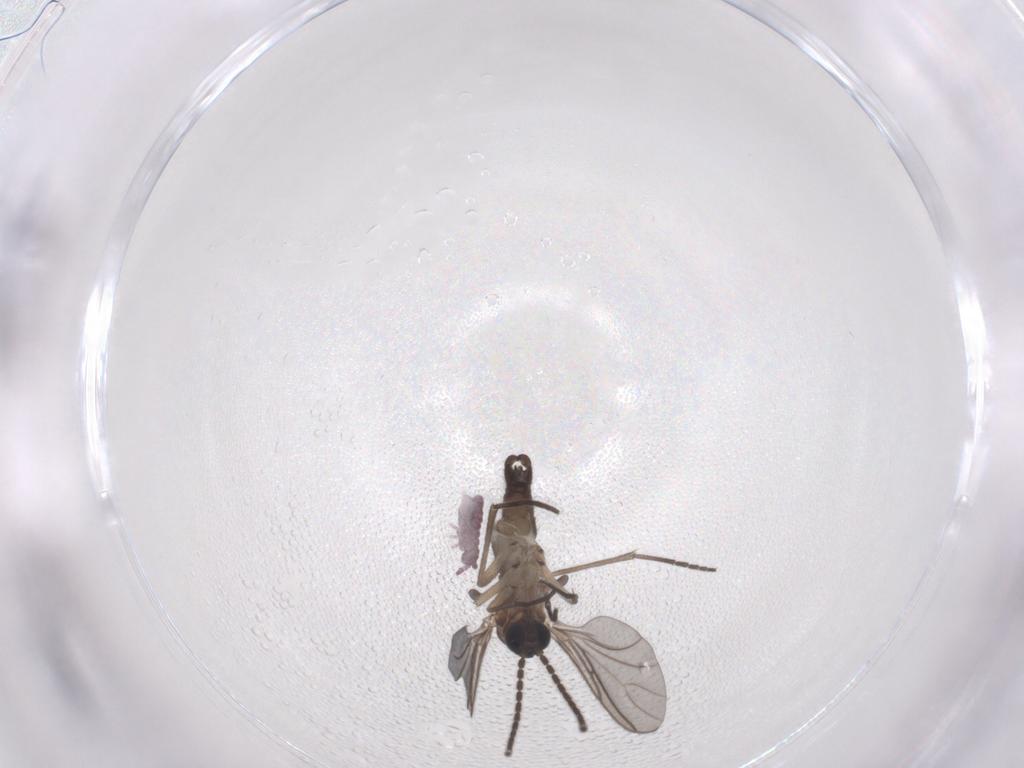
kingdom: Animalia
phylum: Arthropoda
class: Insecta
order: Diptera
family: Sciaridae
